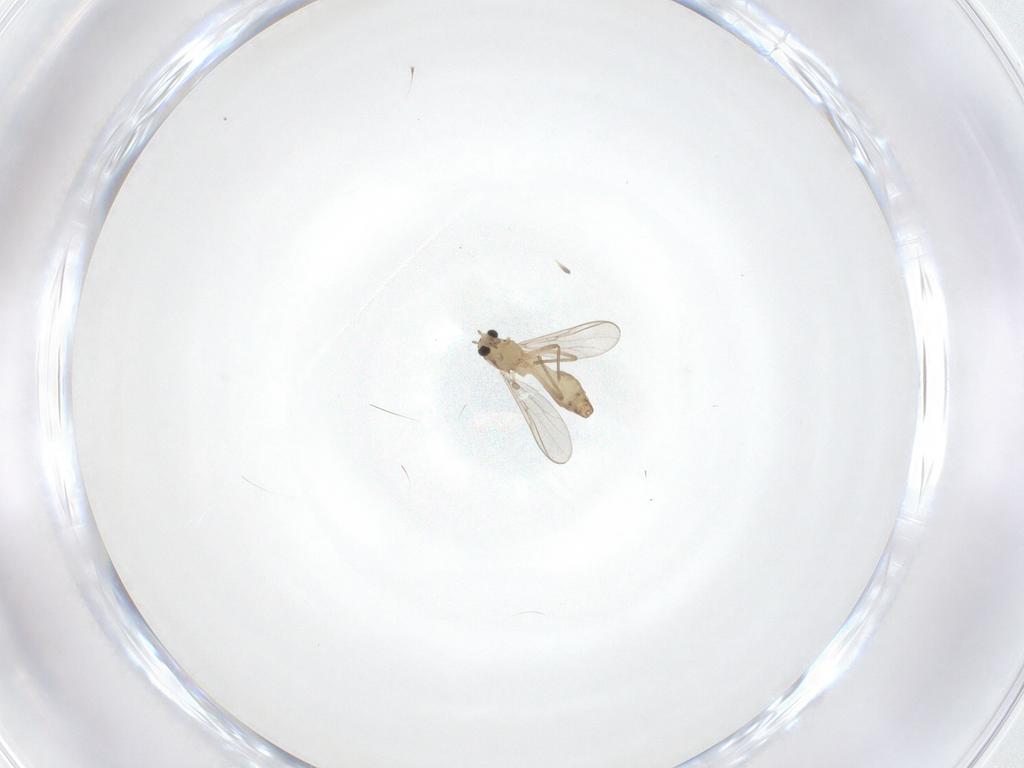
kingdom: Animalia
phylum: Arthropoda
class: Insecta
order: Diptera
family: Chironomidae
